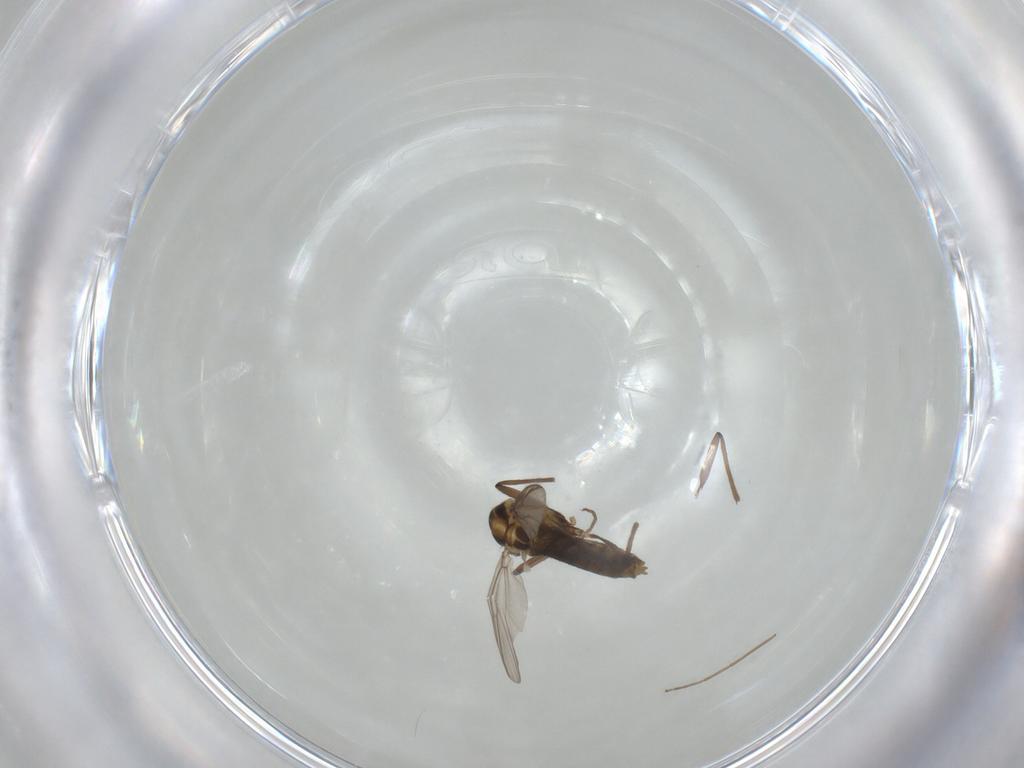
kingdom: Animalia
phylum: Arthropoda
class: Insecta
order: Diptera
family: Chironomidae
